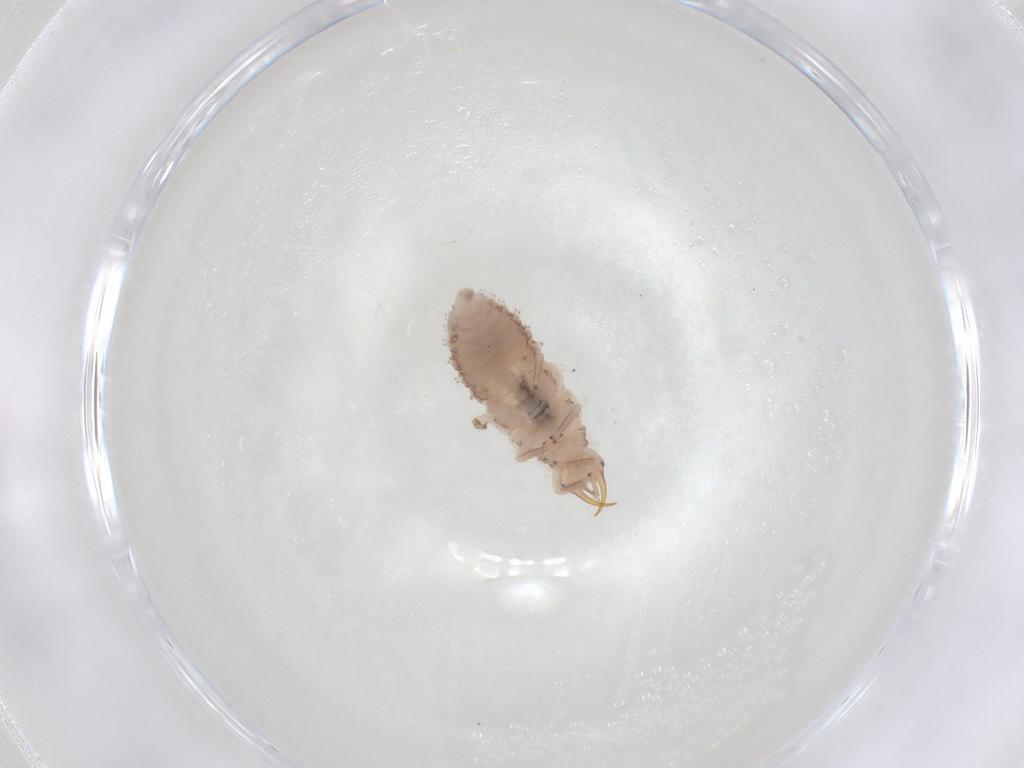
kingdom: Animalia
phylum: Arthropoda
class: Insecta
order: Neuroptera
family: Chrysopidae
